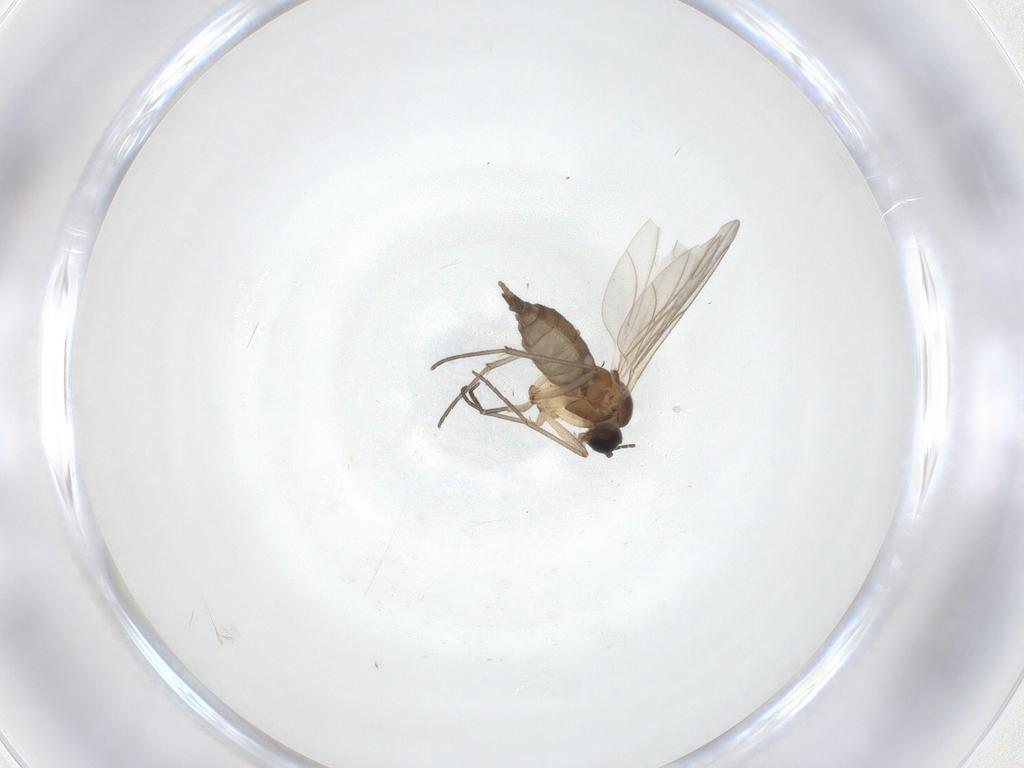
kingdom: Animalia
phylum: Arthropoda
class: Insecta
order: Diptera
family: Sciaridae
